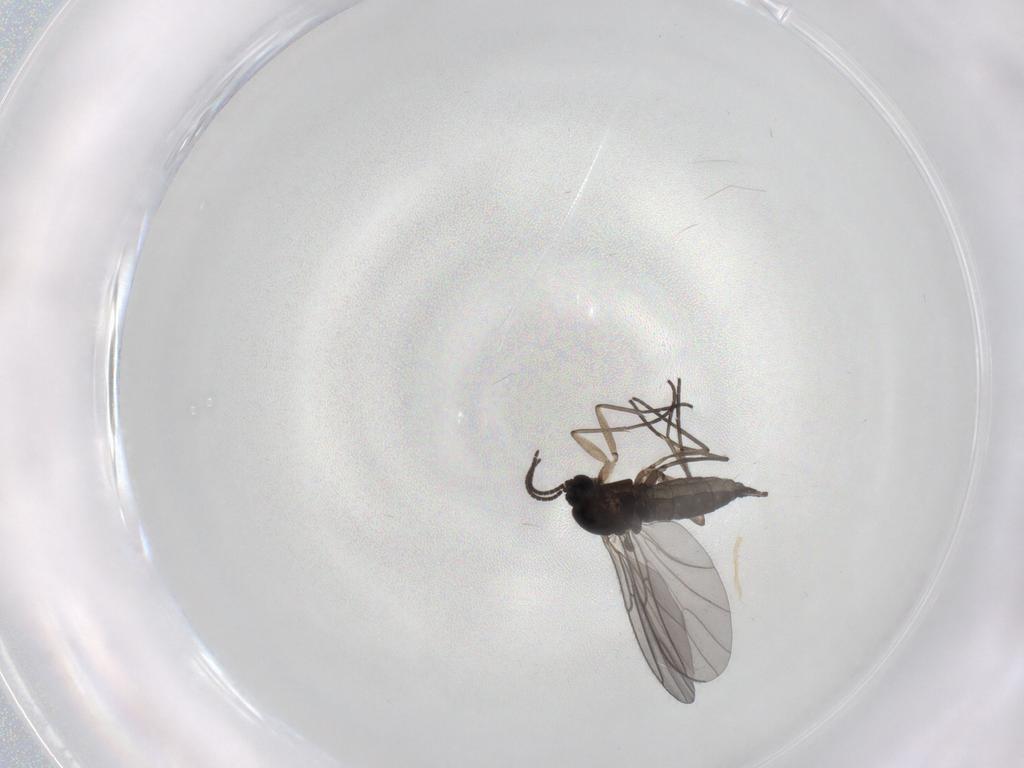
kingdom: Animalia
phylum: Arthropoda
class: Insecta
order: Diptera
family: Sciaridae
